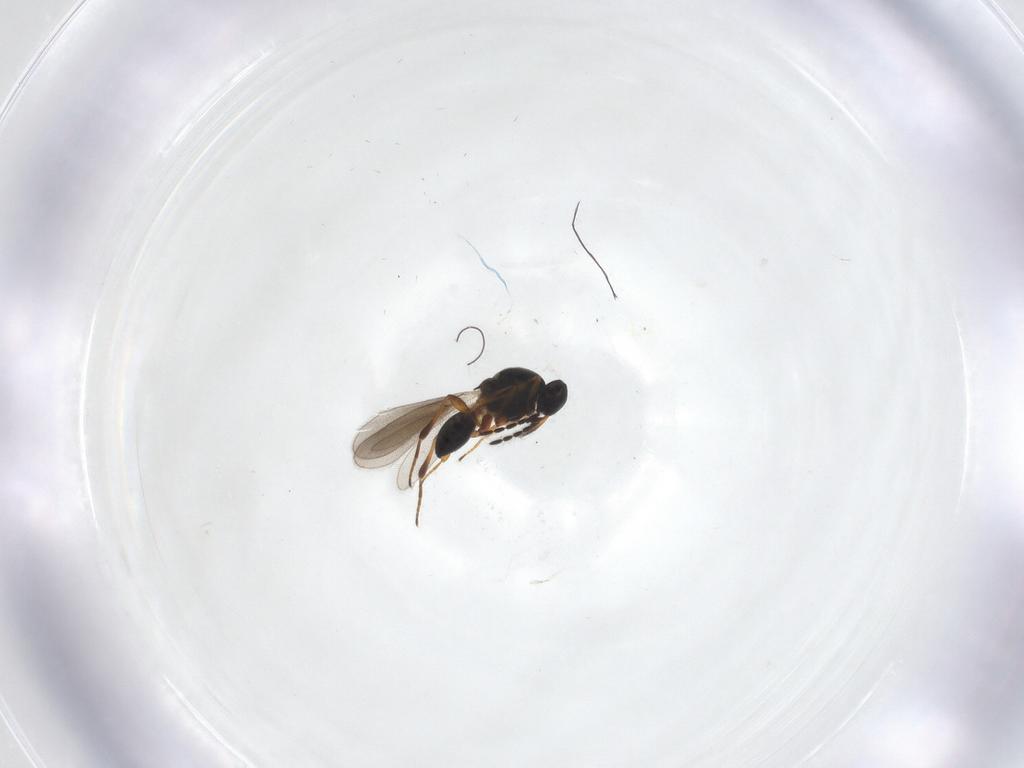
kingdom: Animalia
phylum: Arthropoda
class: Insecta
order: Hymenoptera
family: Platygastridae
